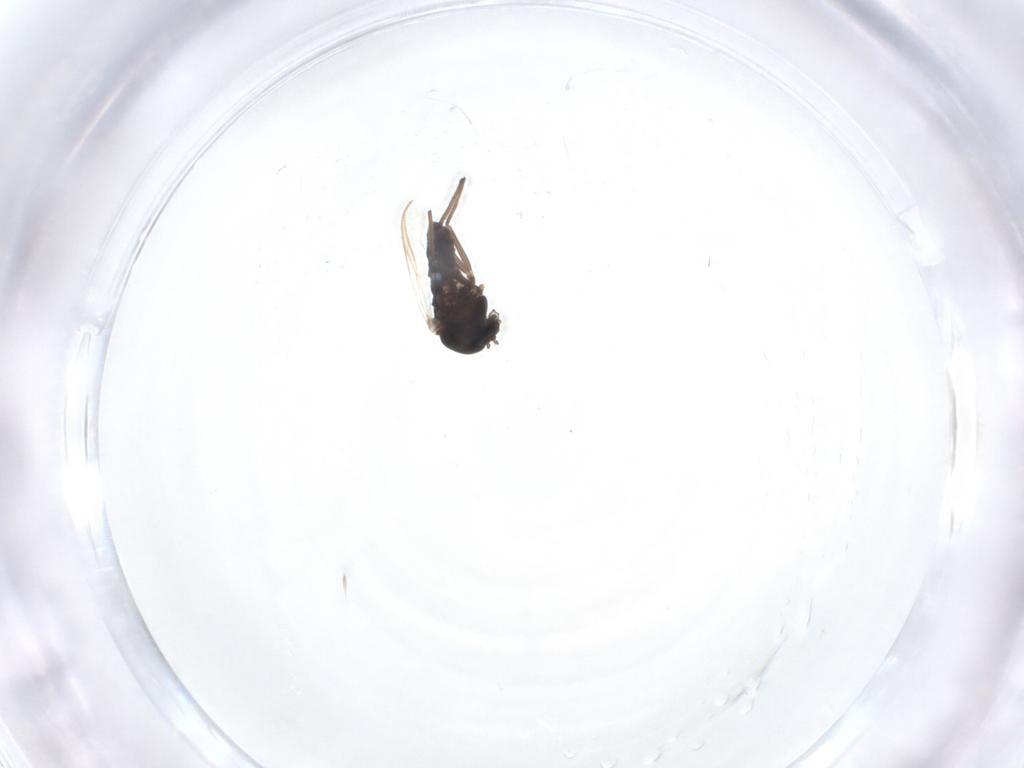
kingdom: Animalia
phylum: Arthropoda
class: Insecta
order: Diptera
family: Chironomidae
